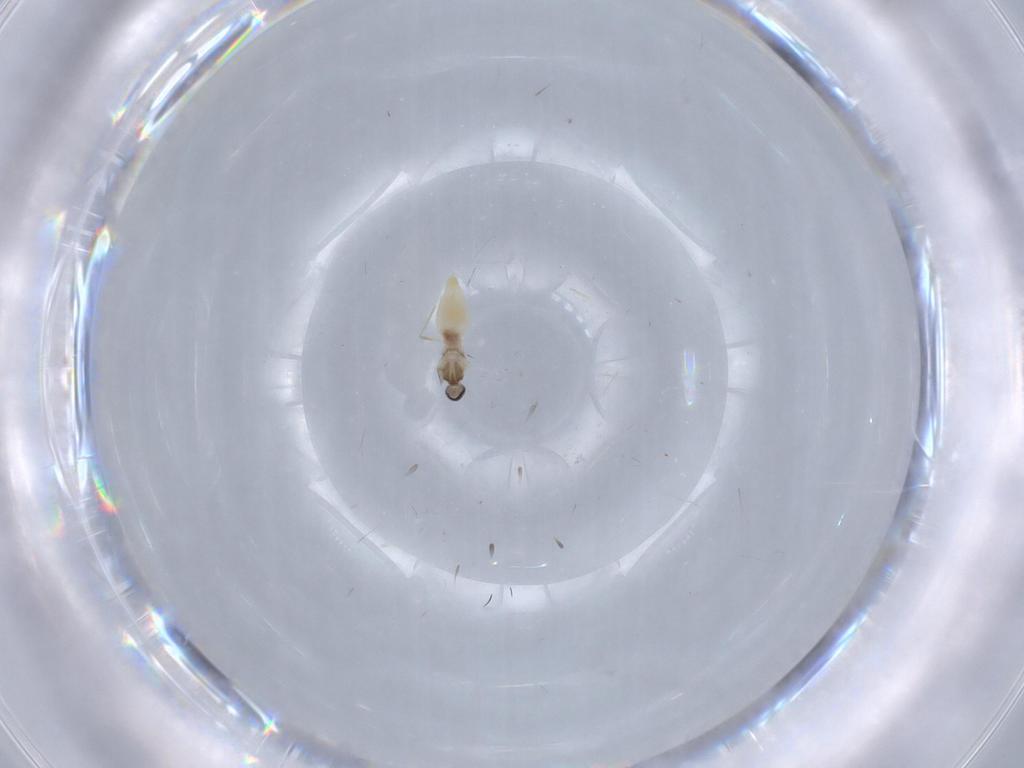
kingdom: Animalia
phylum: Arthropoda
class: Insecta
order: Diptera
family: Cecidomyiidae
